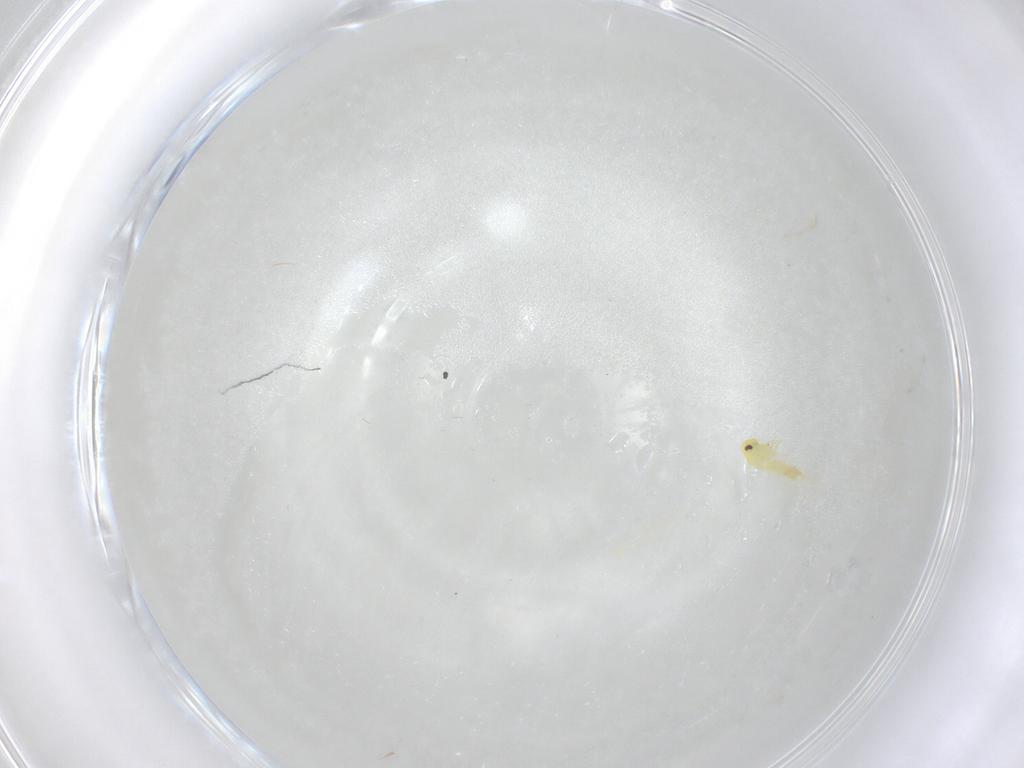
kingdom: Animalia
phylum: Arthropoda
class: Insecta
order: Hemiptera
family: Aleyrodidae
